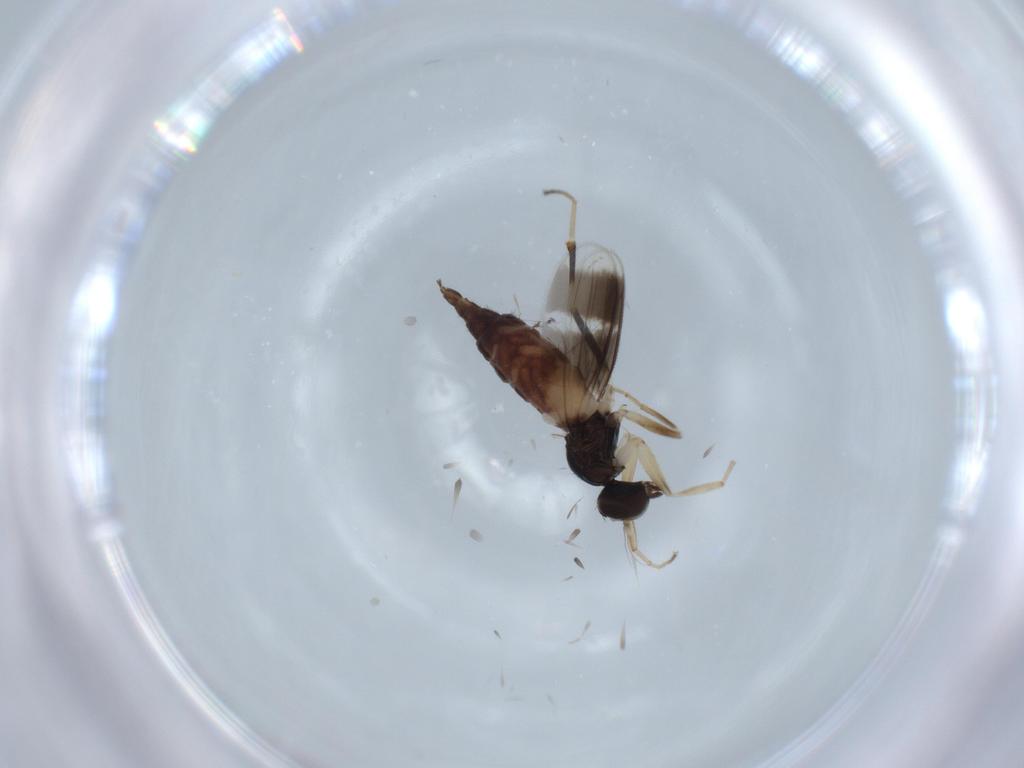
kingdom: Animalia
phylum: Arthropoda
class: Insecta
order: Diptera
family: Hybotidae
